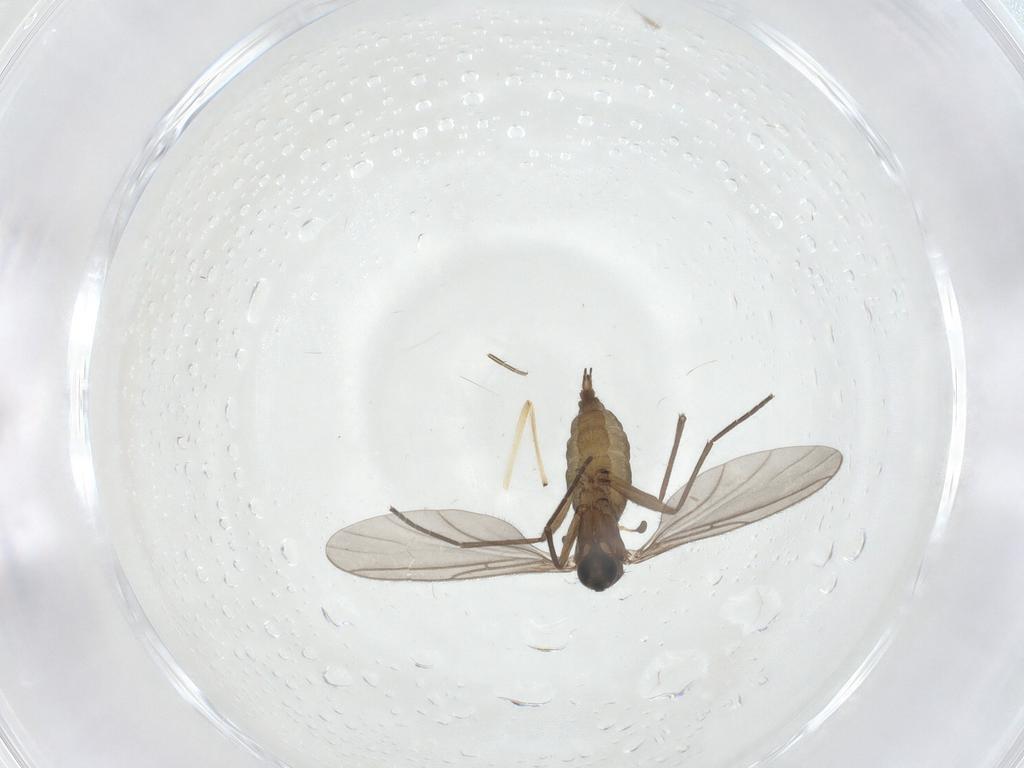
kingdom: Animalia
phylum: Arthropoda
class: Insecta
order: Diptera
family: Sciaridae
